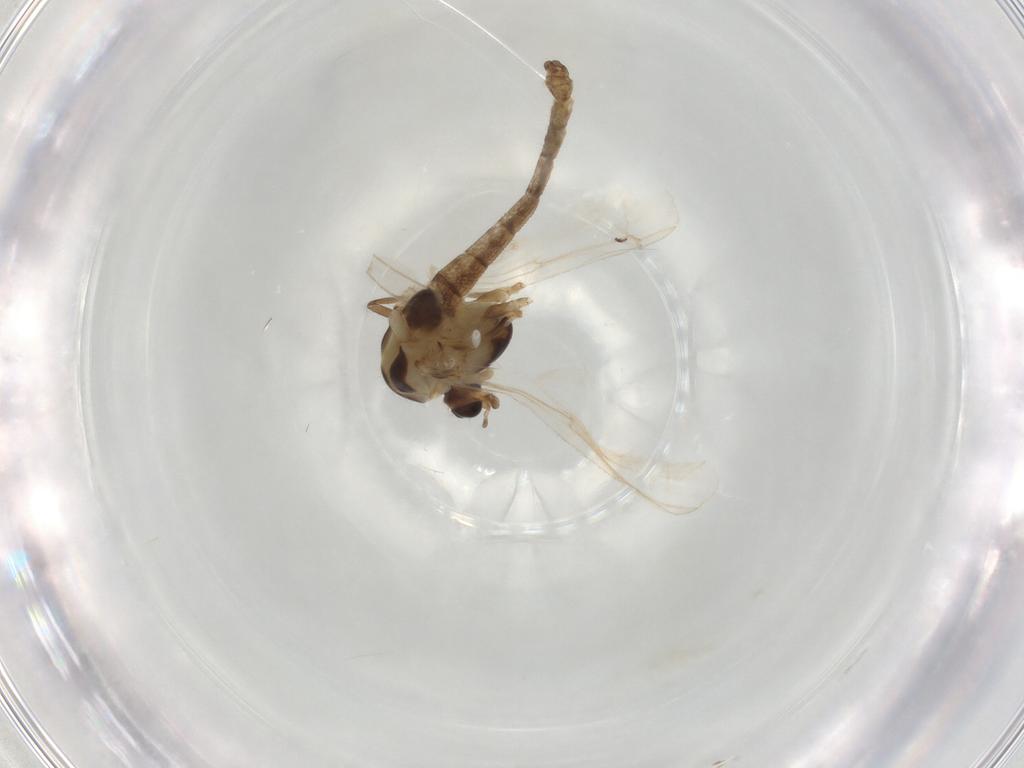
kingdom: Animalia
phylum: Arthropoda
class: Insecta
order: Diptera
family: Chironomidae
